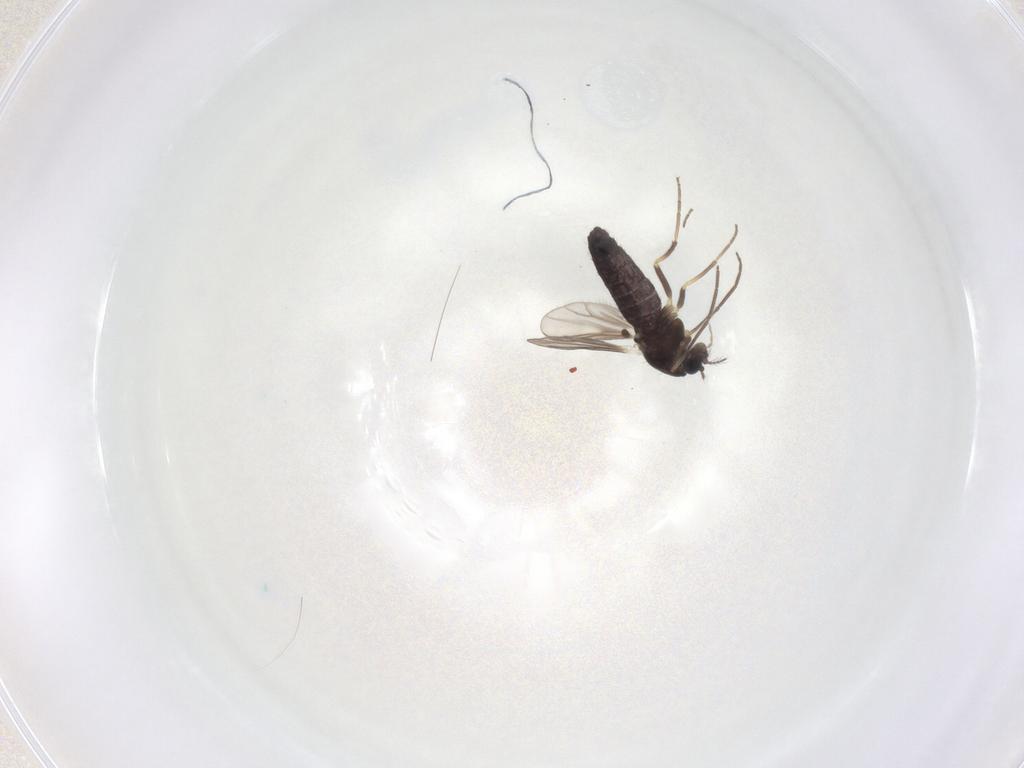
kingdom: Animalia
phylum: Arthropoda
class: Insecta
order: Diptera
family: Chironomidae
